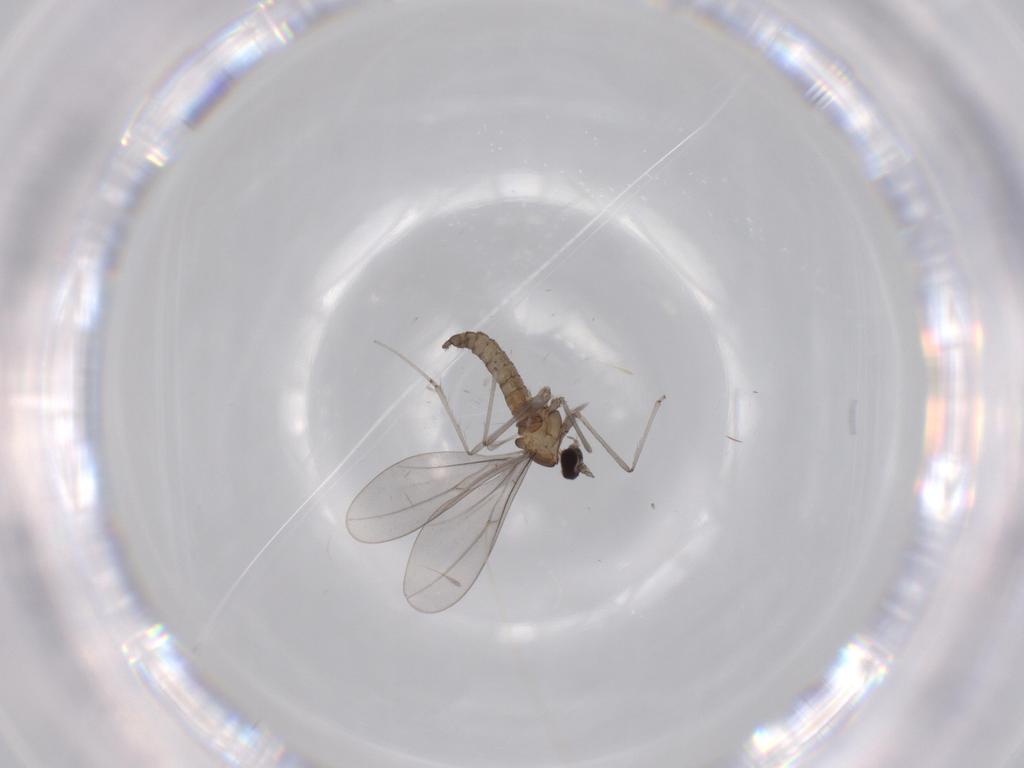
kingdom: Animalia
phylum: Arthropoda
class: Insecta
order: Diptera
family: Cecidomyiidae
